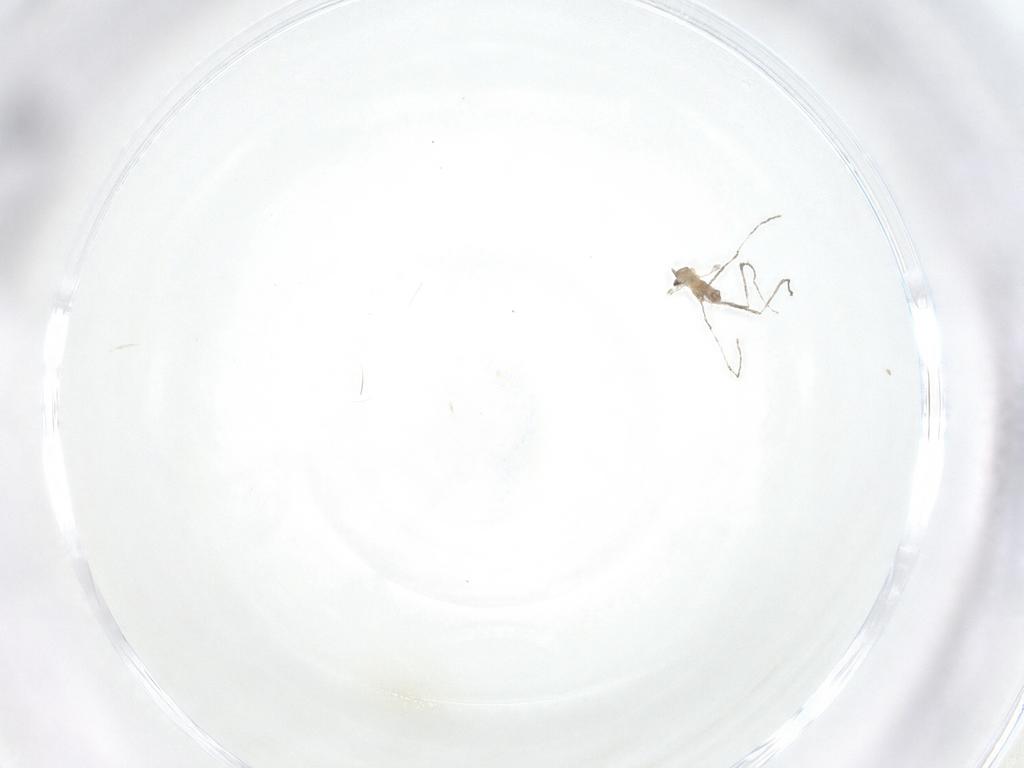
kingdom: Animalia
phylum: Arthropoda
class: Insecta
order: Diptera
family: Cecidomyiidae
